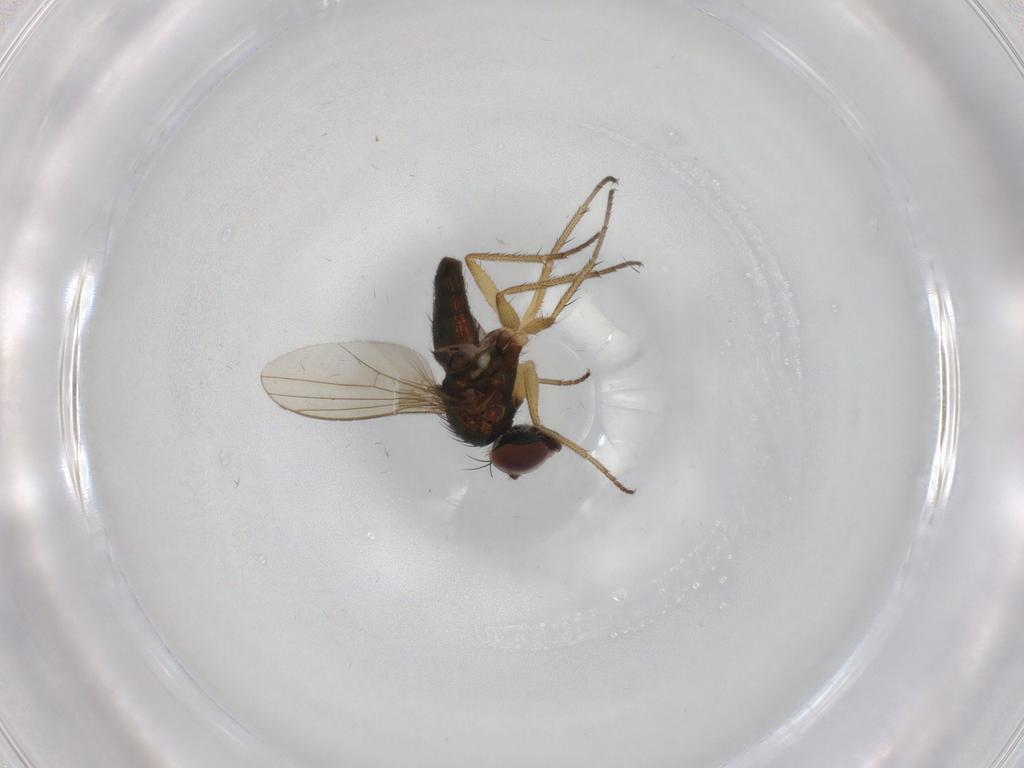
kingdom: Animalia
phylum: Arthropoda
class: Insecta
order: Diptera
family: Dolichopodidae
